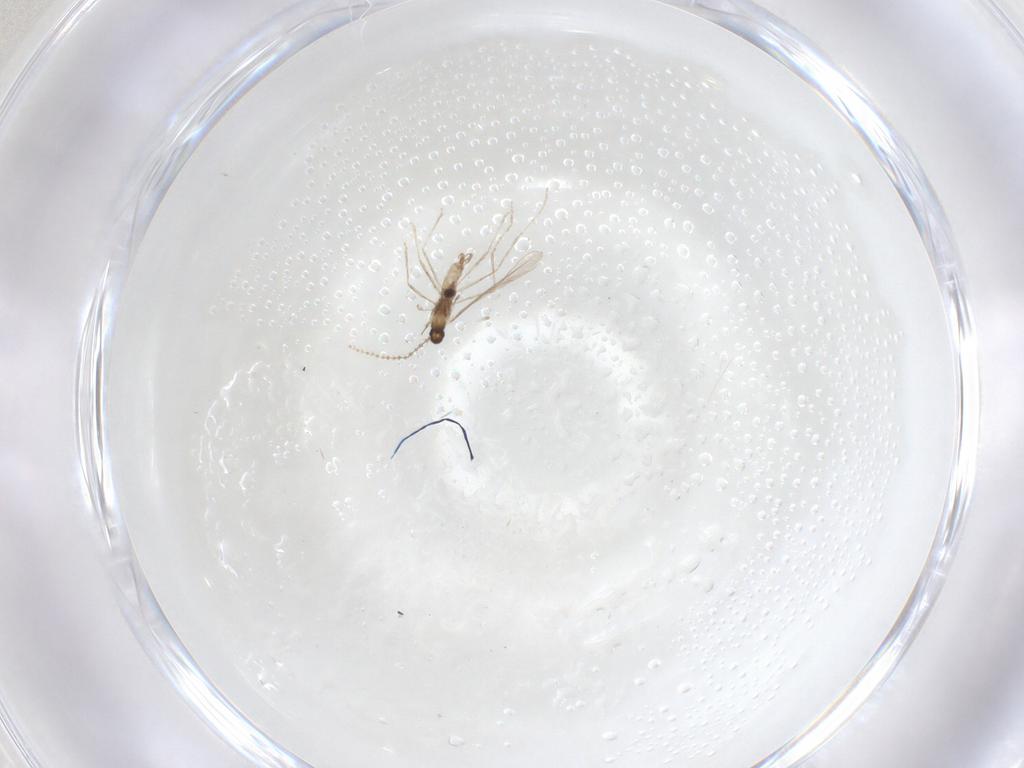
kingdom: Animalia
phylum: Arthropoda
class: Insecta
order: Diptera
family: Cecidomyiidae
